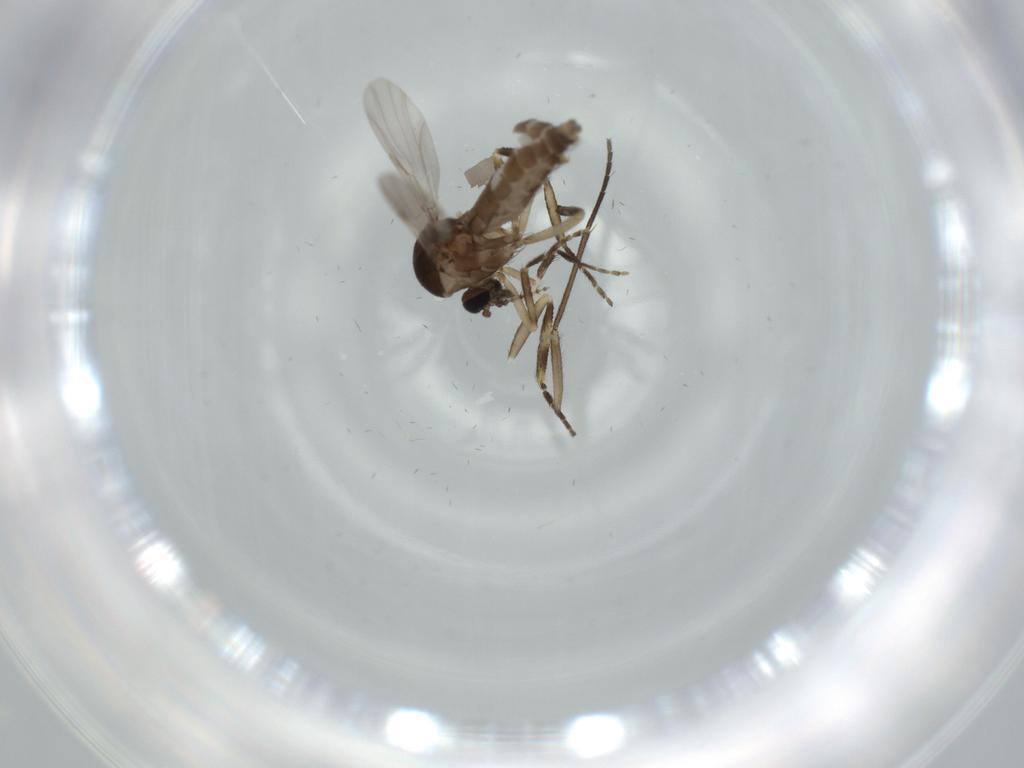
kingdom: Animalia
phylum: Arthropoda
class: Insecta
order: Diptera
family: Ceratopogonidae
